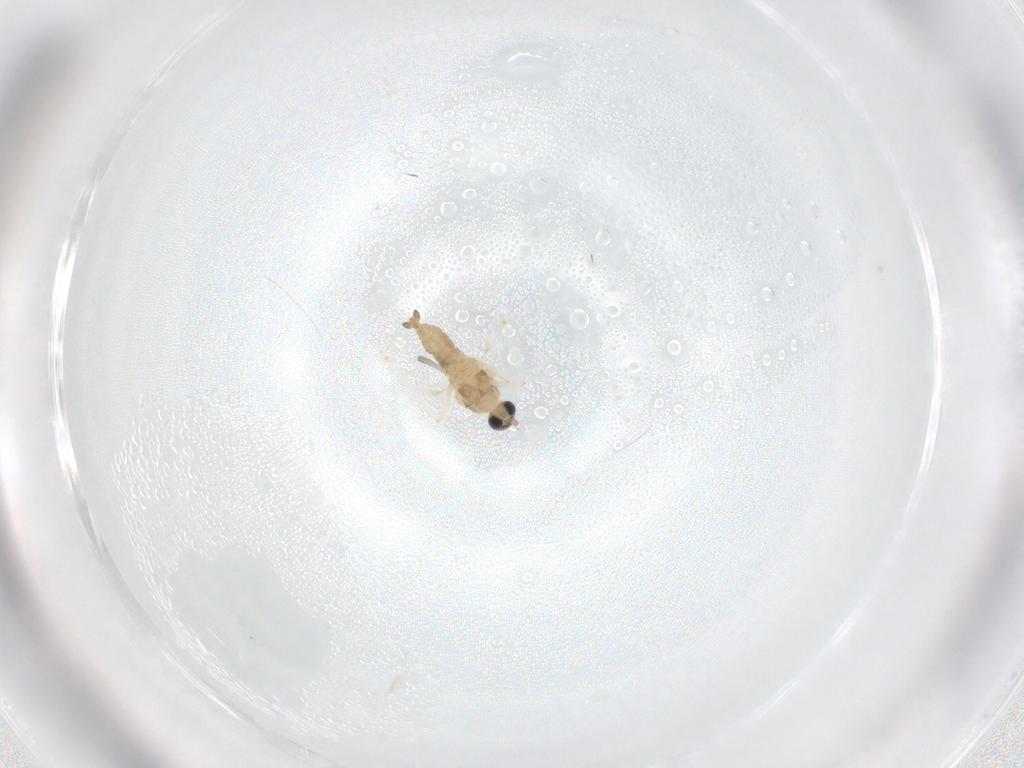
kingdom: Animalia
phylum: Arthropoda
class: Insecta
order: Diptera
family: Cecidomyiidae
